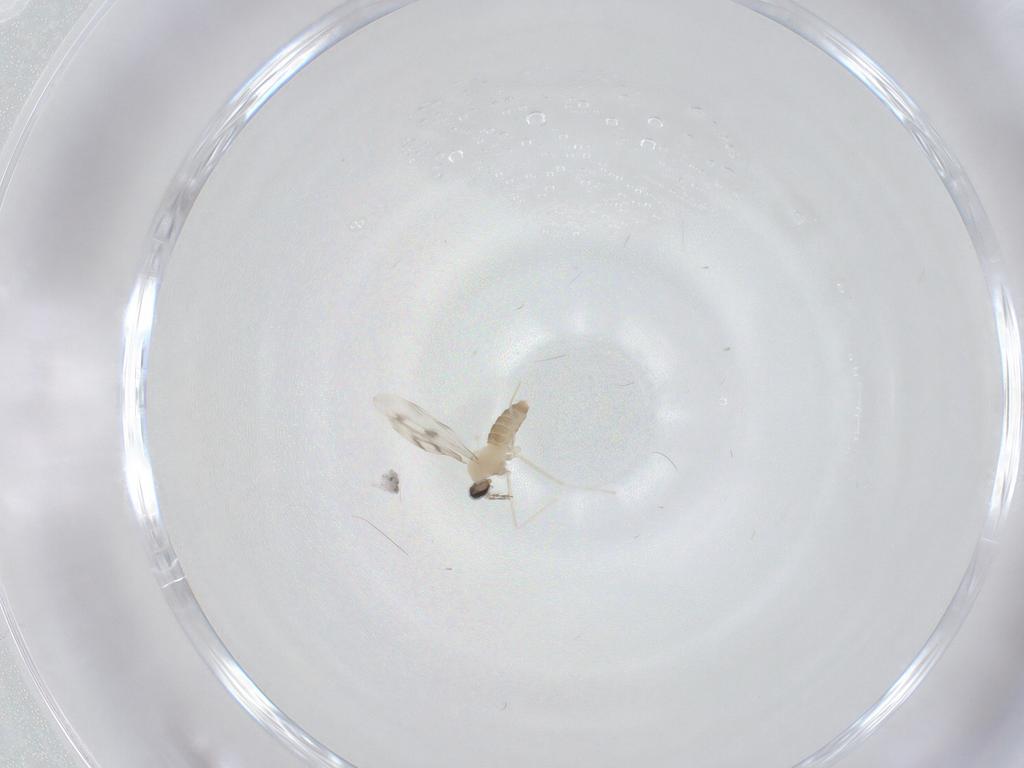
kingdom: Animalia
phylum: Arthropoda
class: Insecta
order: Diptera
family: Cecidomyiidae
